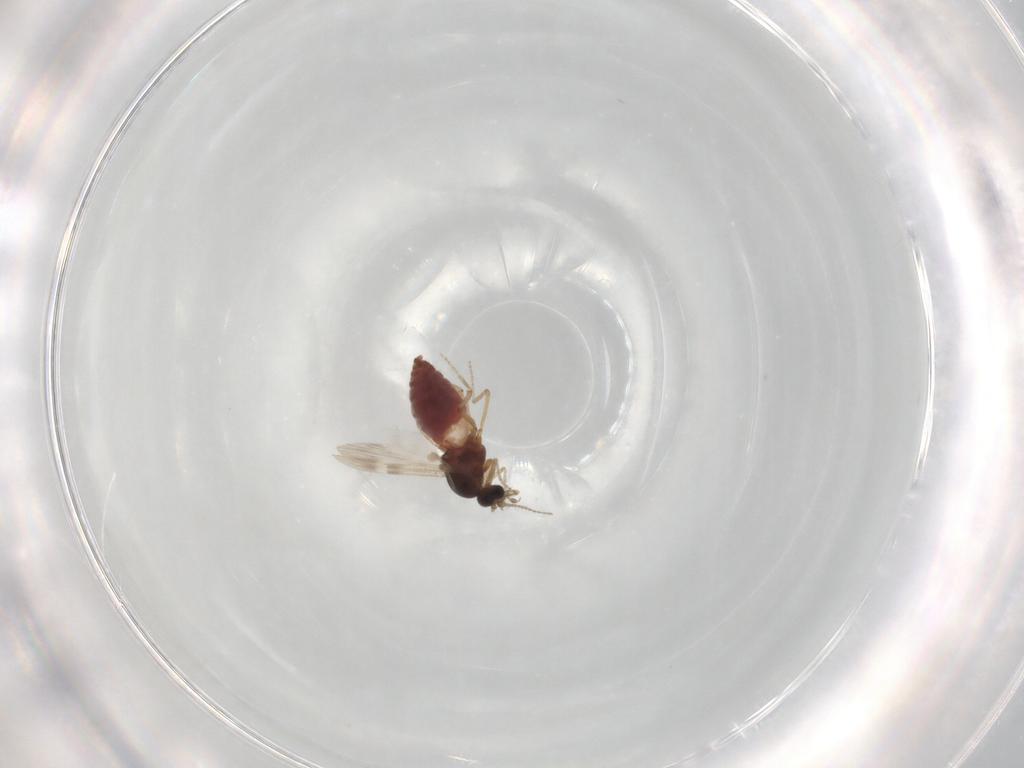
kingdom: Animalia
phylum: Arthropoda
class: Insecta
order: Diptera
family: Ceratopogonidae
